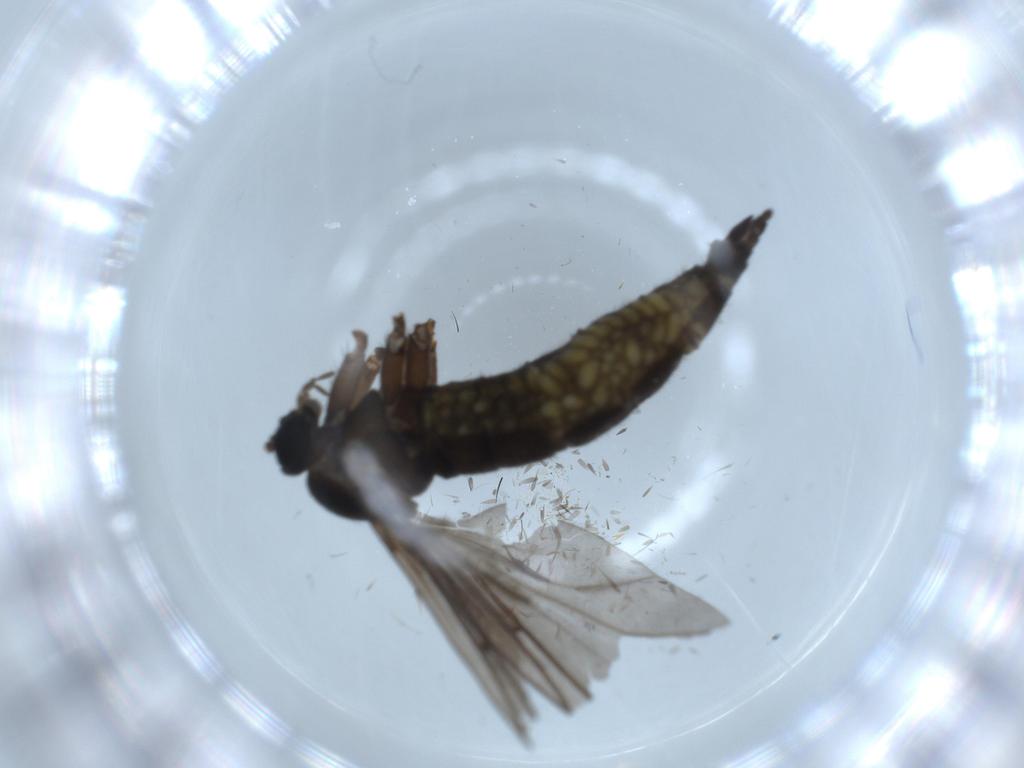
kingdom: Animalia
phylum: Arthropoda
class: Insecta
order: Diptera
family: Sciaridae
